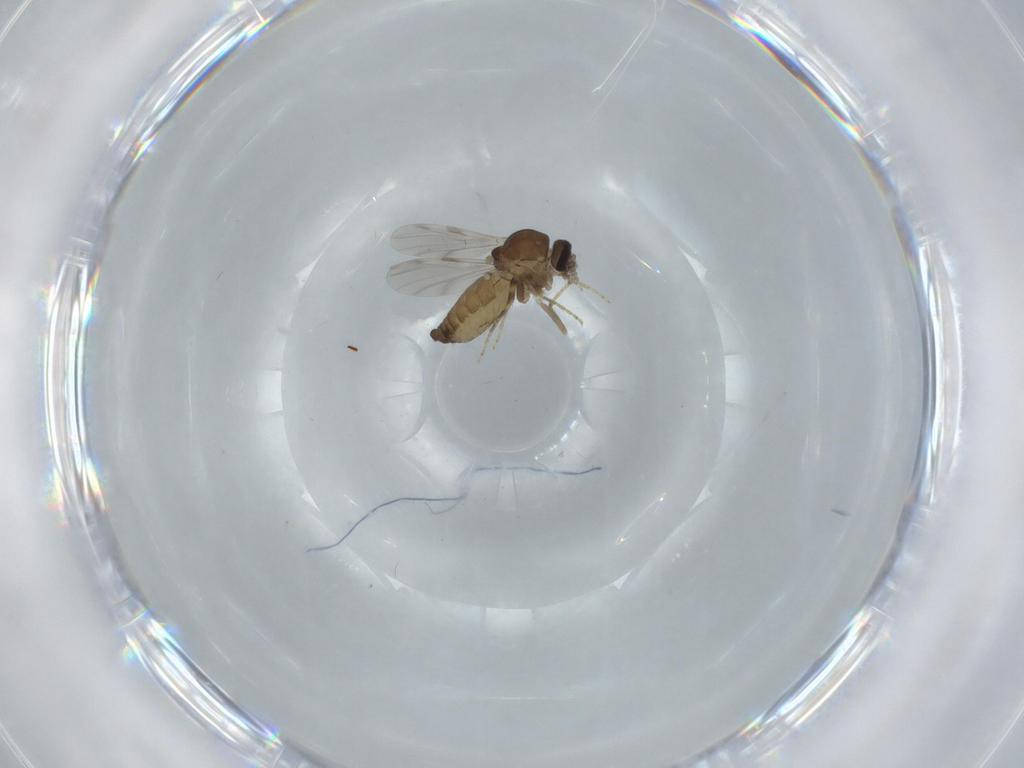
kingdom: Animalia
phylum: Arthropoda
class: Insecta
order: Diptera
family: Ceratopogonidae
